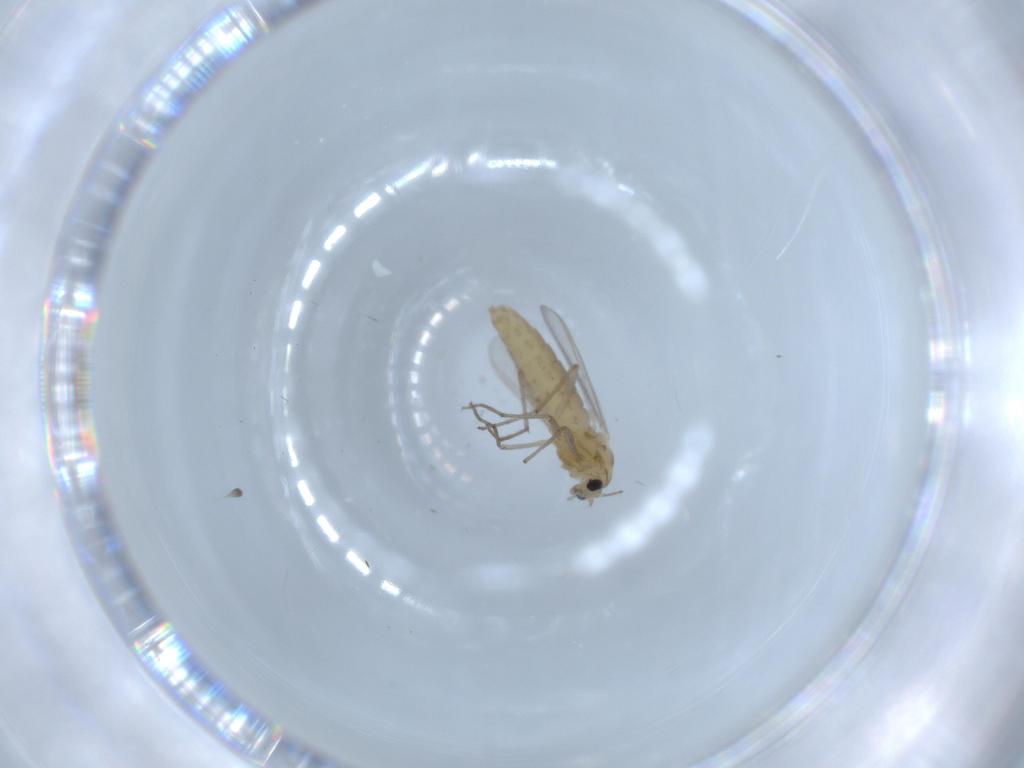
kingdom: Animalia
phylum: Arthropoda
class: Insecta
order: Diptera
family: Chironomidae
